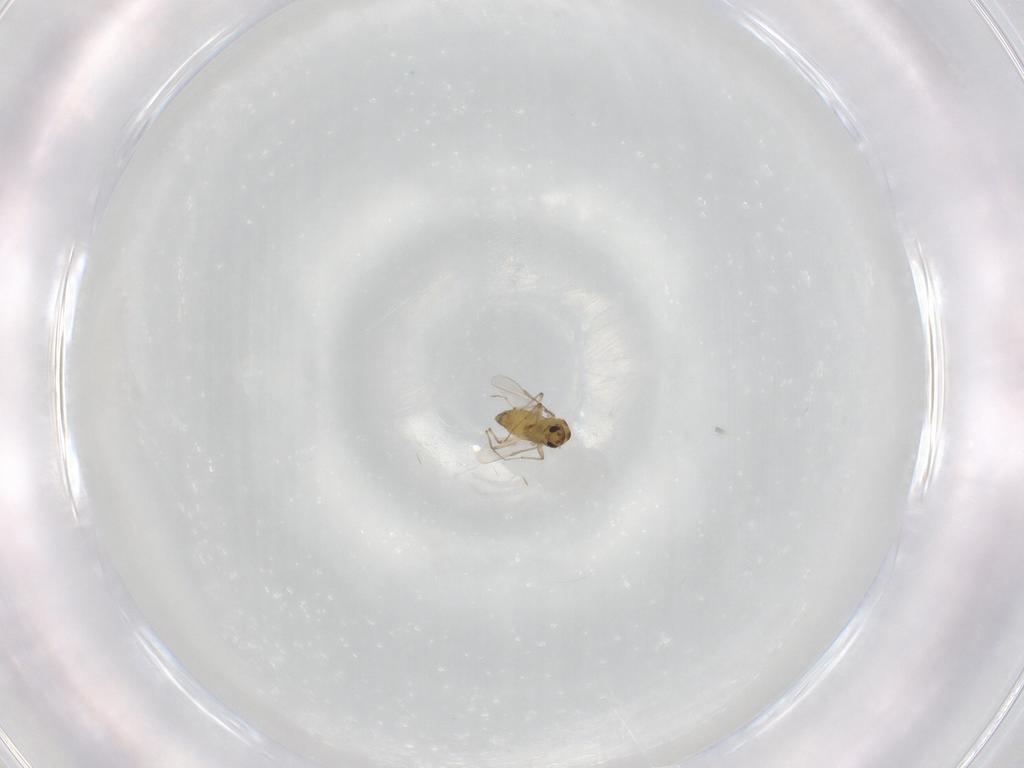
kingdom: Animalia
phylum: Arthropoda
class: Insecta
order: Diptera
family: Chironomidae
